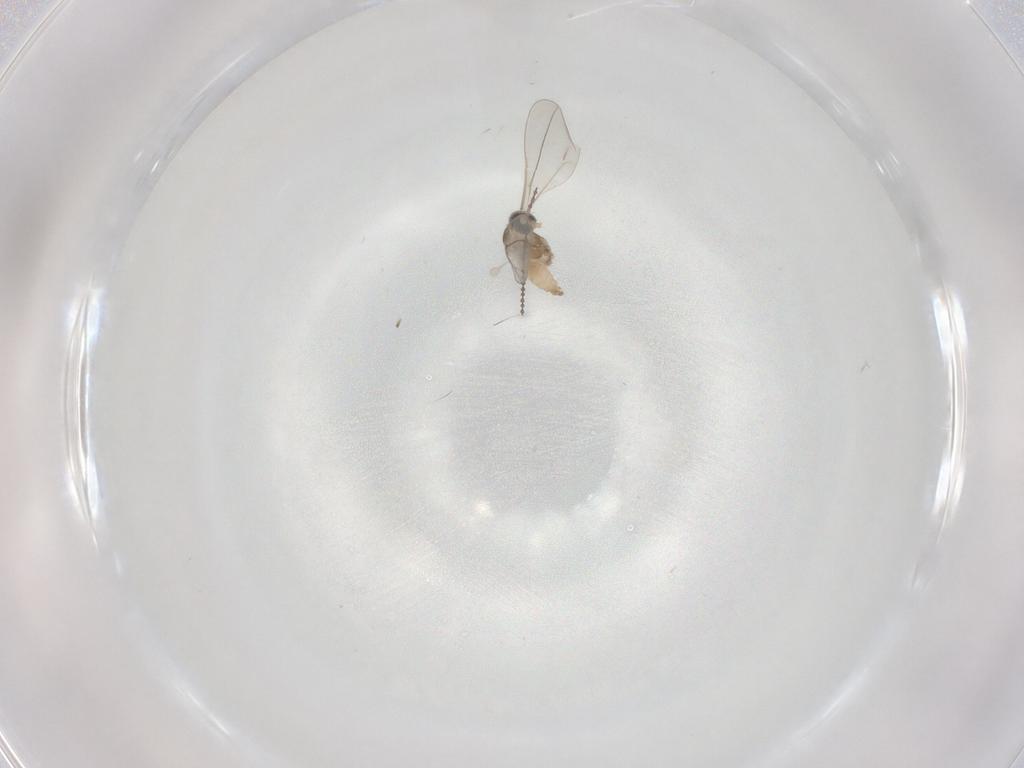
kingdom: Animalia
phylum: Arthropoda
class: Insecta
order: Diptera
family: Cecidomyiidae
